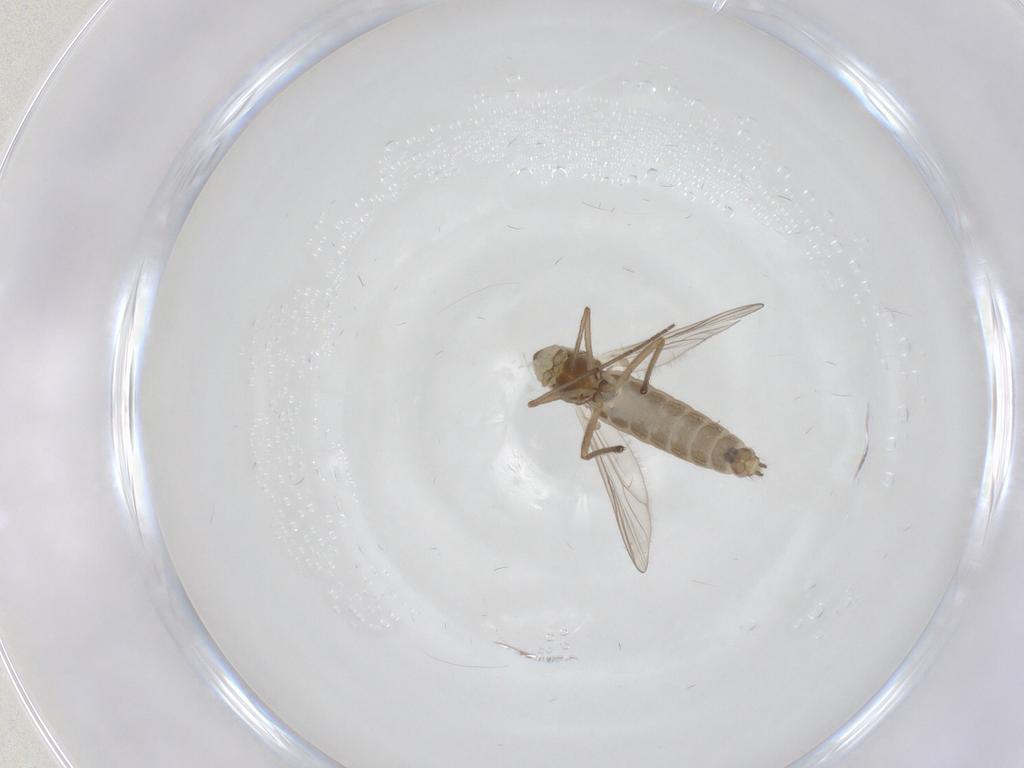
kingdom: Animalia
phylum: Arthropoda
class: Insecta
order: Diptera
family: Chironomidae
